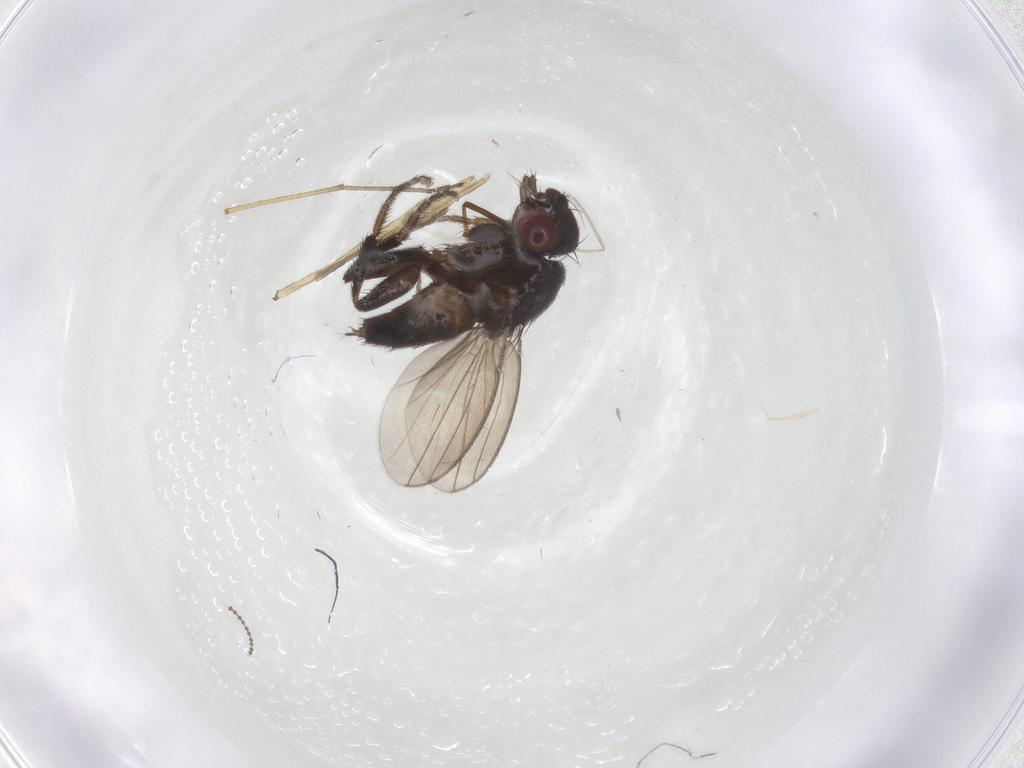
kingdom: Animalia
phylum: Arthropoda
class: Insecta
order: Diptera
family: Milichiidae
